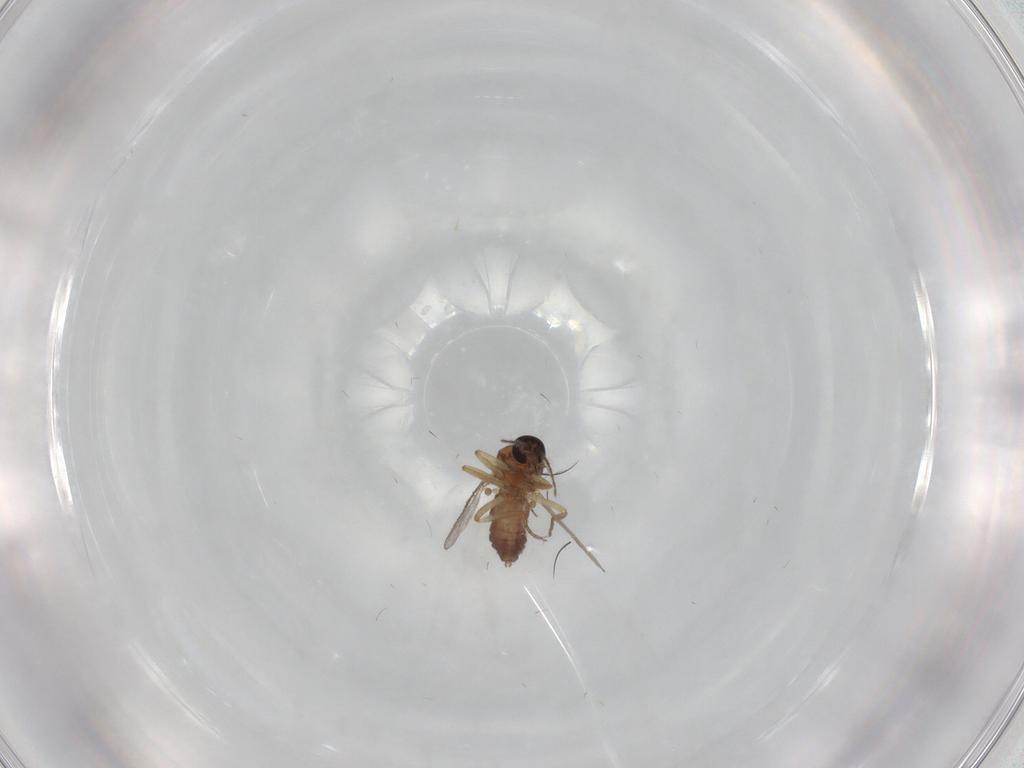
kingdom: Animalia
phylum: Arthropoda
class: Insecta
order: Diptera
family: Ceratopogonidae
